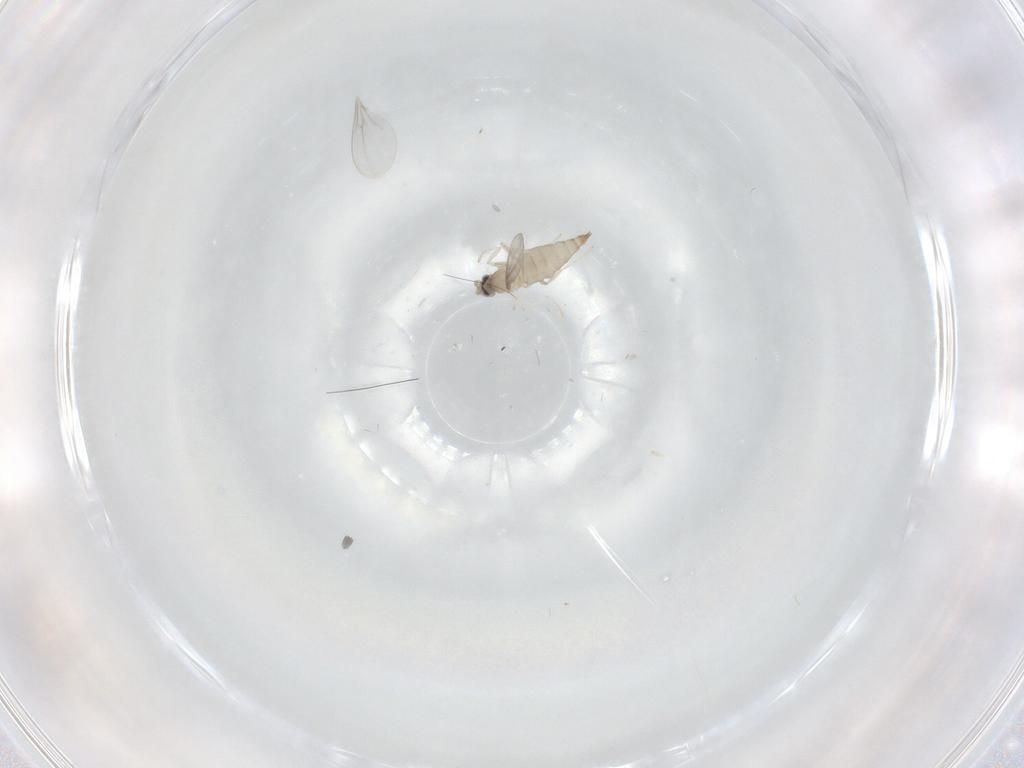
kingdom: Animalia
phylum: Arthropoda
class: Insecta
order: Diptera
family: Cecidomyiidae
